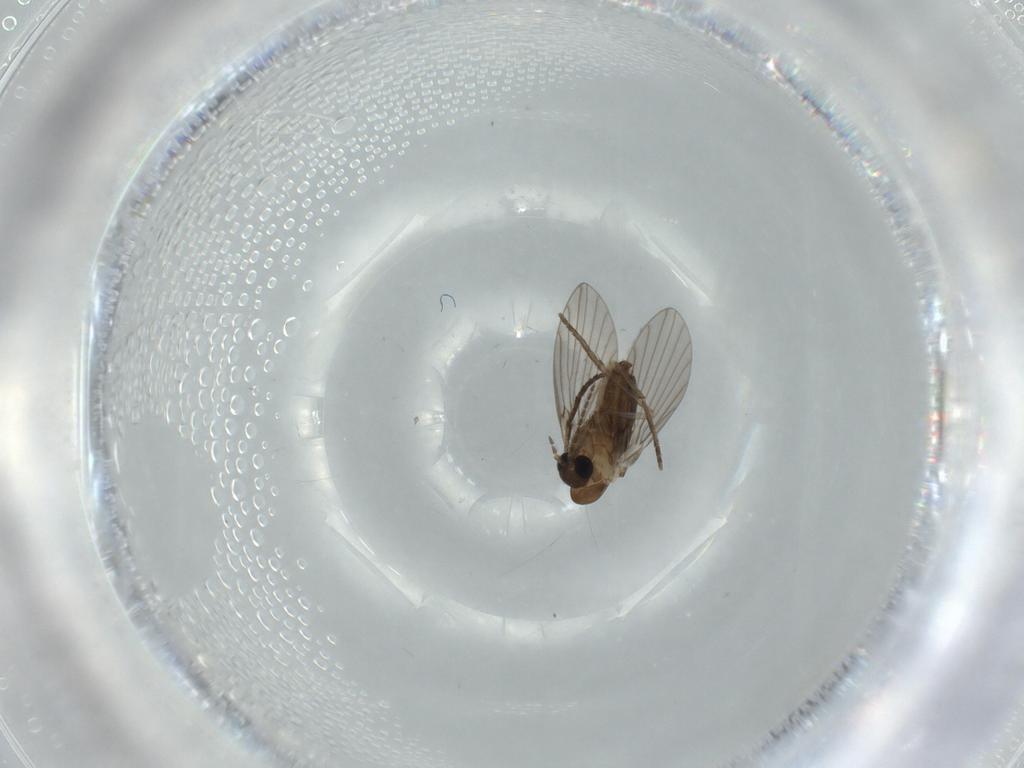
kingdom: Animalia
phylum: Arthropoda
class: Insecta
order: Diptera
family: Psychodidae
